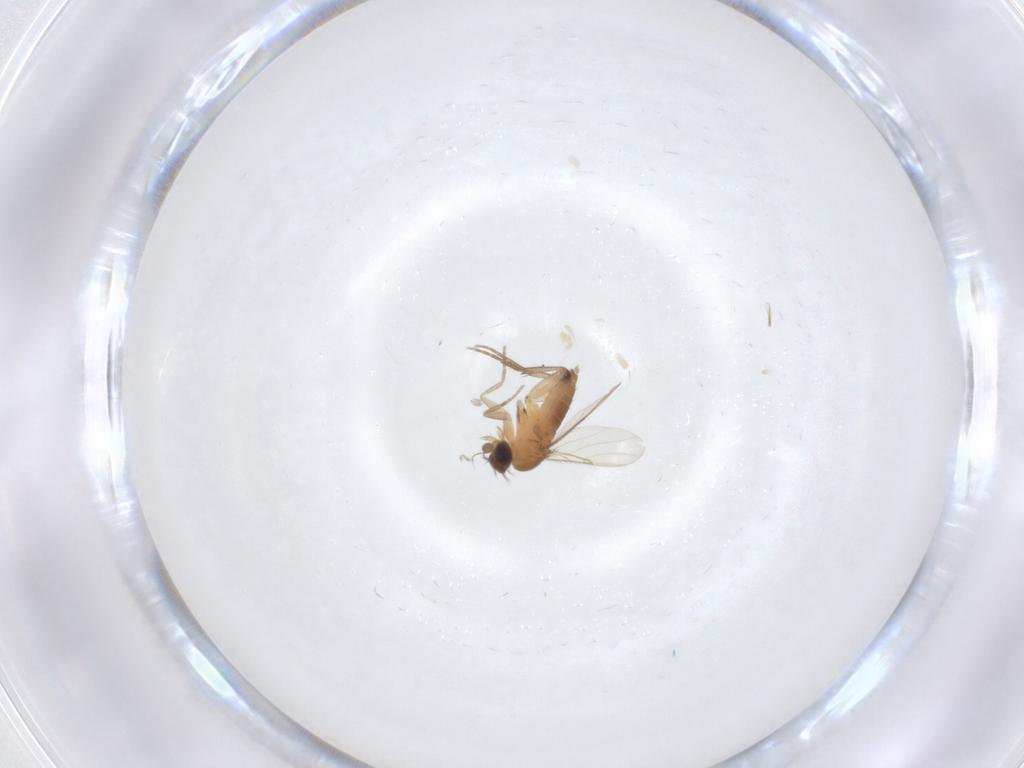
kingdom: Animalia
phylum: Arthropoda
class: Insecta
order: Diptera
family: Phoridae
